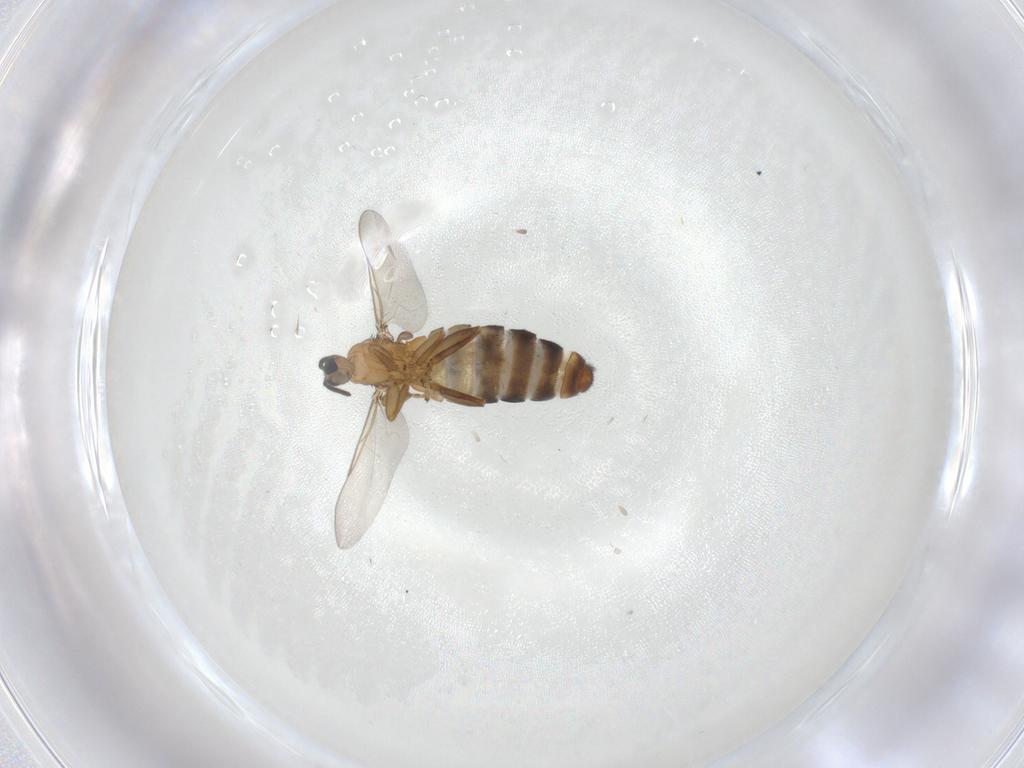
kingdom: Animalia
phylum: Arthropoda
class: Insecta
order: Diptera
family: Scatopsidae
